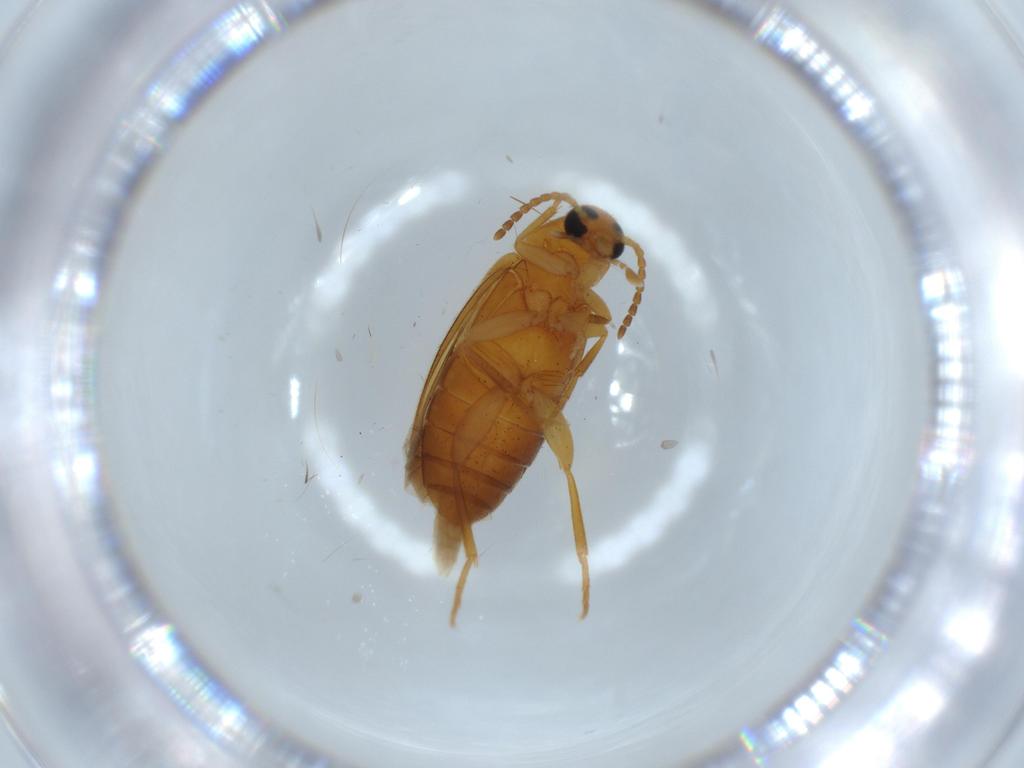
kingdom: Animalia
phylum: Arthropoda
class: Insecta
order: Coleoptera
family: Scraptiidae
